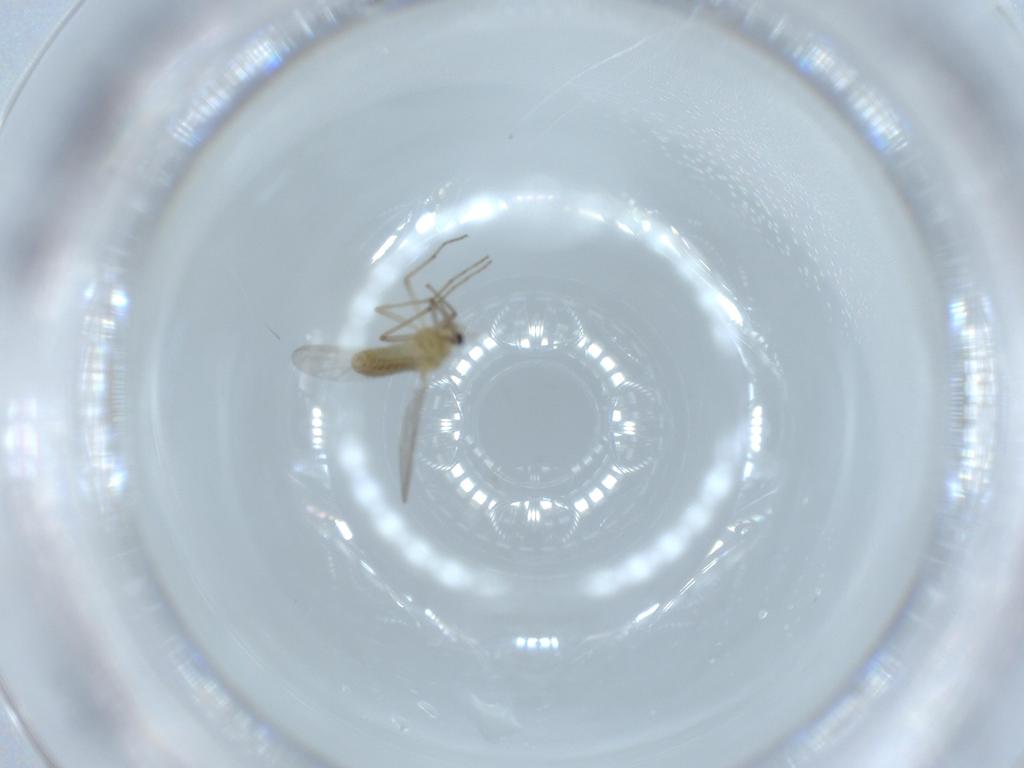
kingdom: Animalia
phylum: Arthropoda
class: Insecta
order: Diptera
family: Chironomidae
